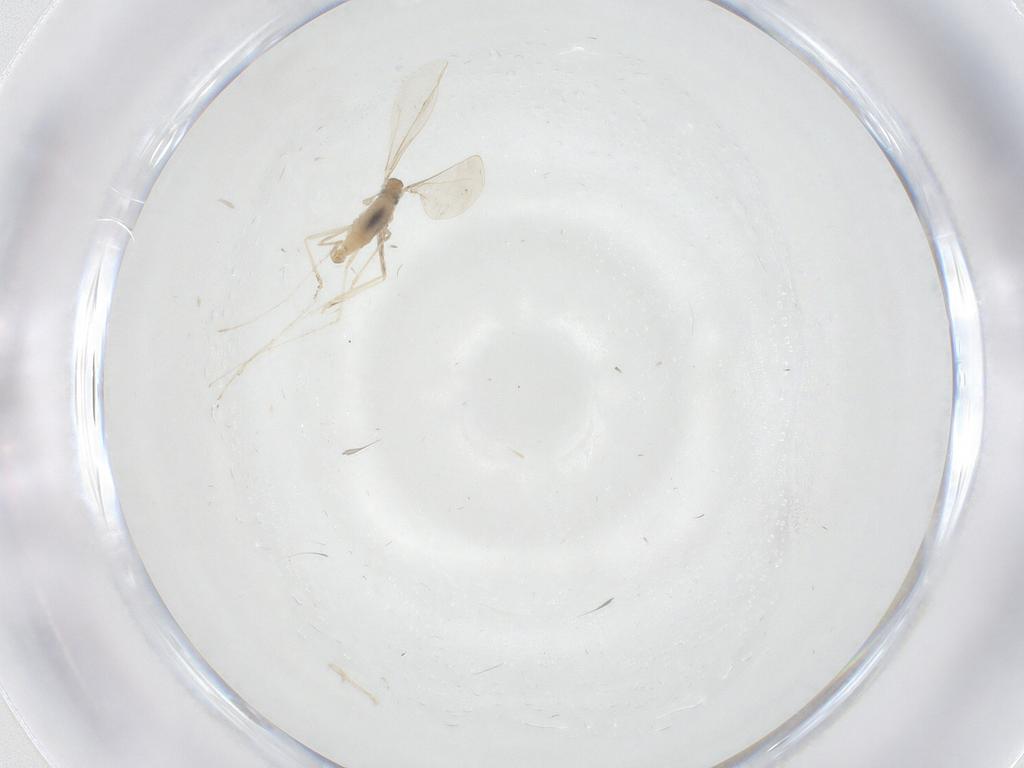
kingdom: Animalia
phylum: Arthropoda
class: Insecta
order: Diptera
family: Cecidomyiidae
